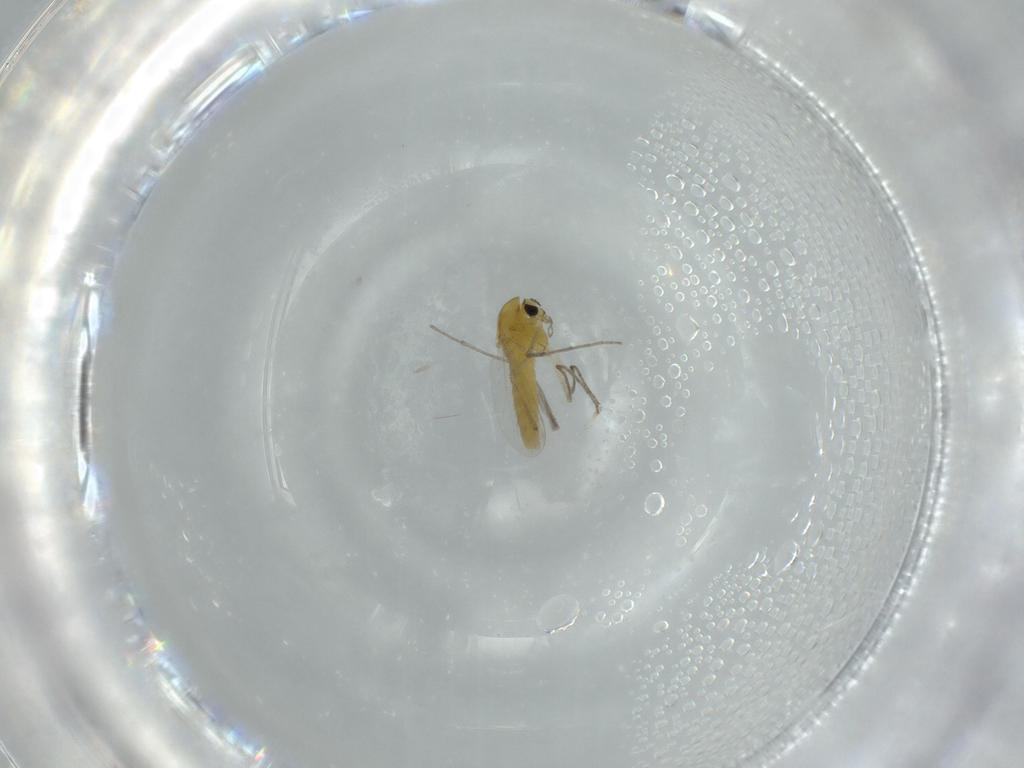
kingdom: Animalia
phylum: Arthropoda
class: Insecta
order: Diptera
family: Chironomidae
